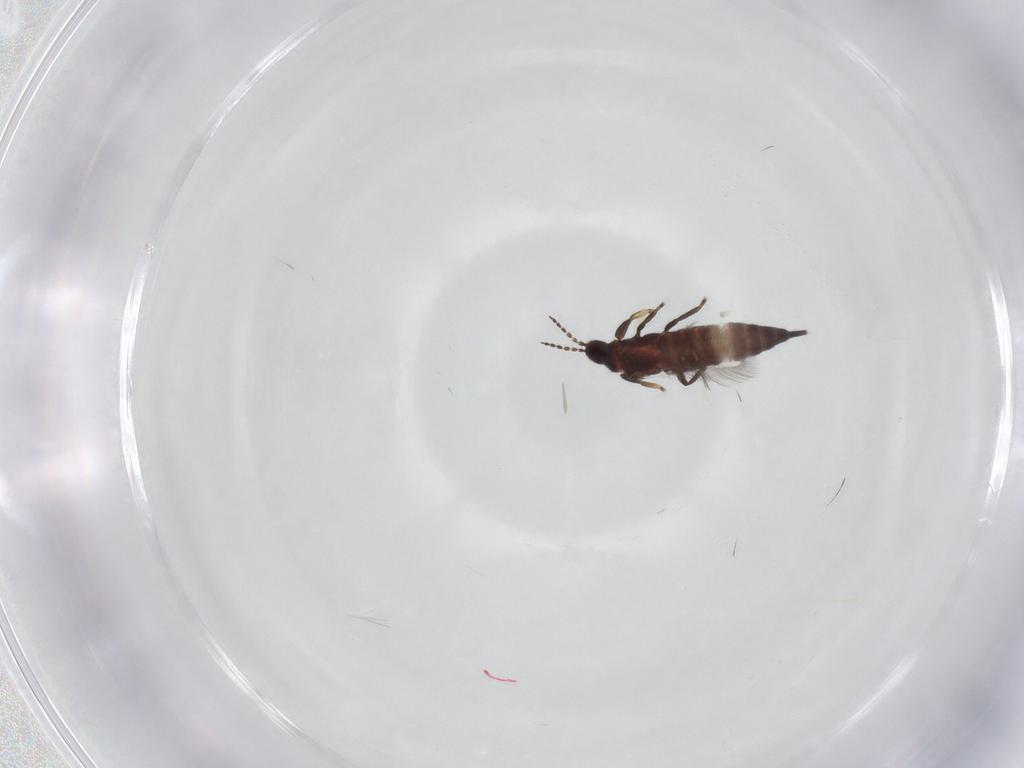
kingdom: Animalia
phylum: Arthropoda
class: Insecta
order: Thysanoptera
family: Phlaeothripidae
